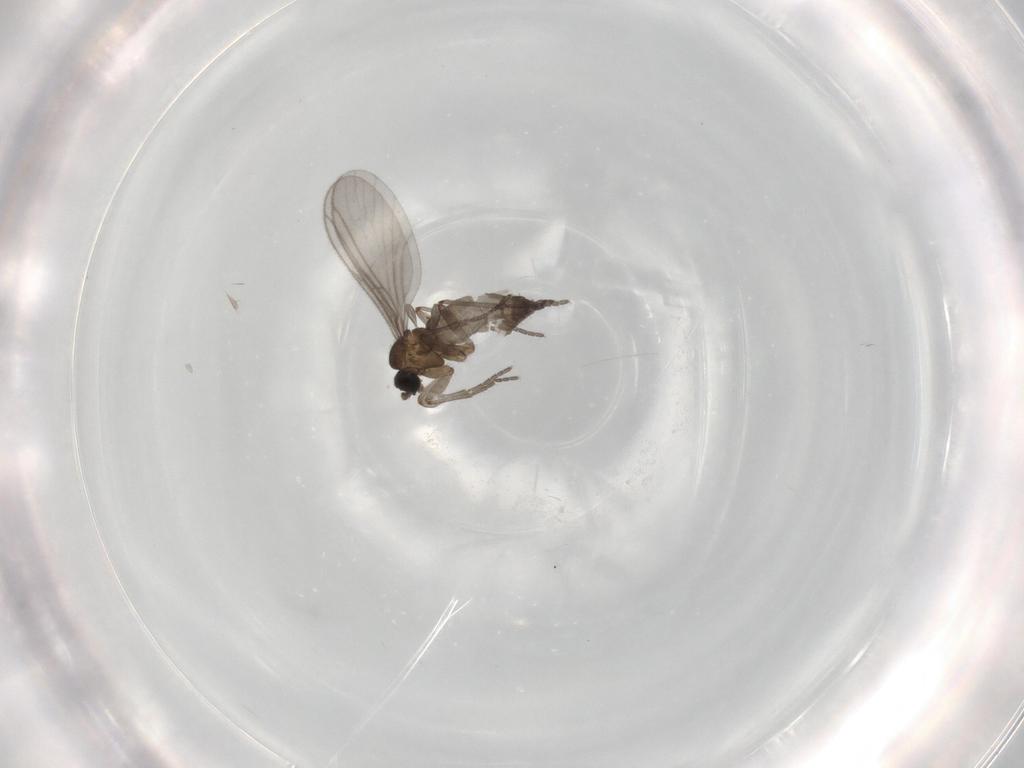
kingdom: Animalia
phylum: Arthropoda
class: Insecta
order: Diptera
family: Sciaridae
